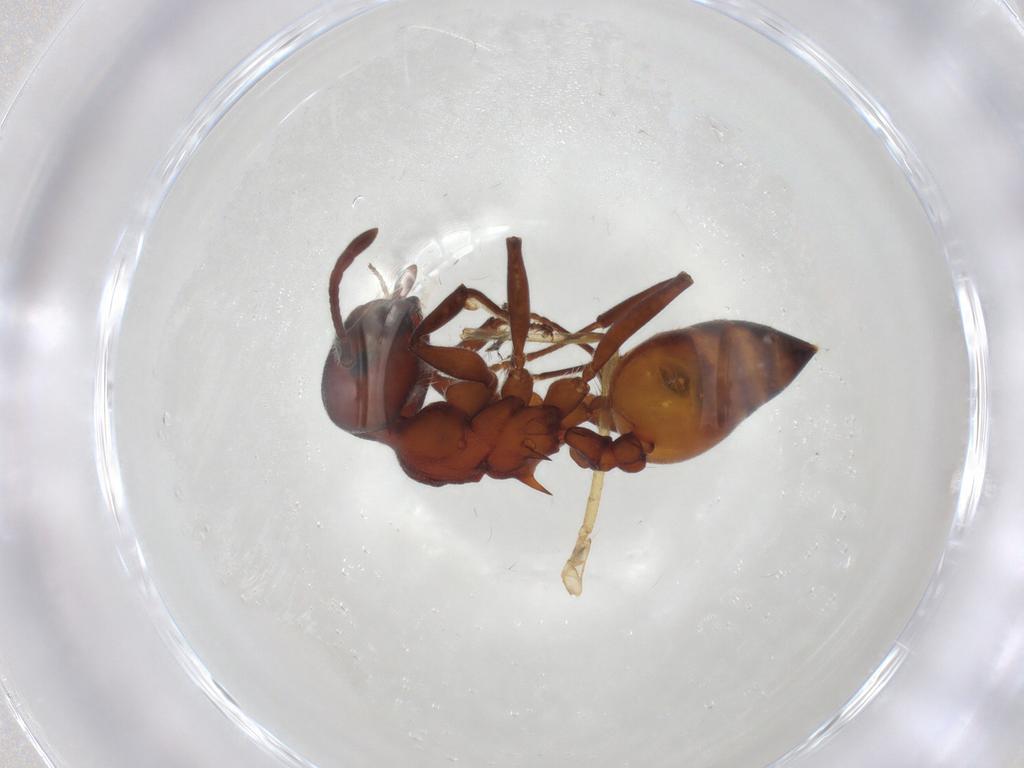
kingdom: Animalia
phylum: Arthropoda
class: Insecta
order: Hymenoptera
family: Formicidae
